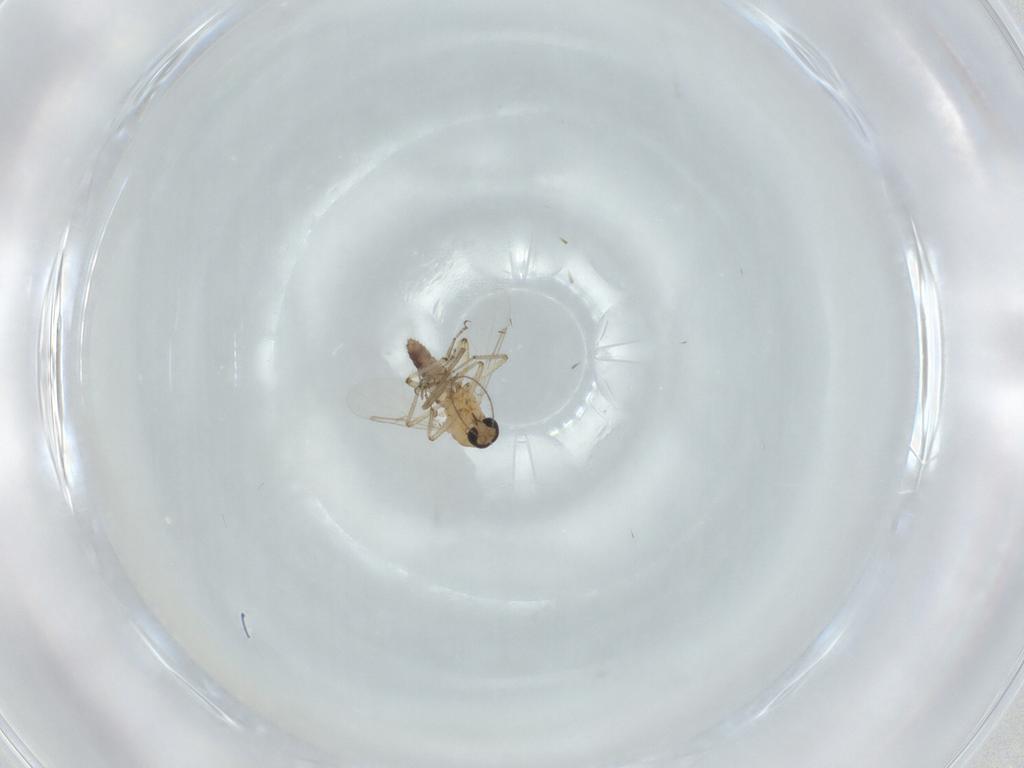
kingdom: Animalia
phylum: Arthropoda
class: Insecta
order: Diptera
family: Ceratopogonidae
